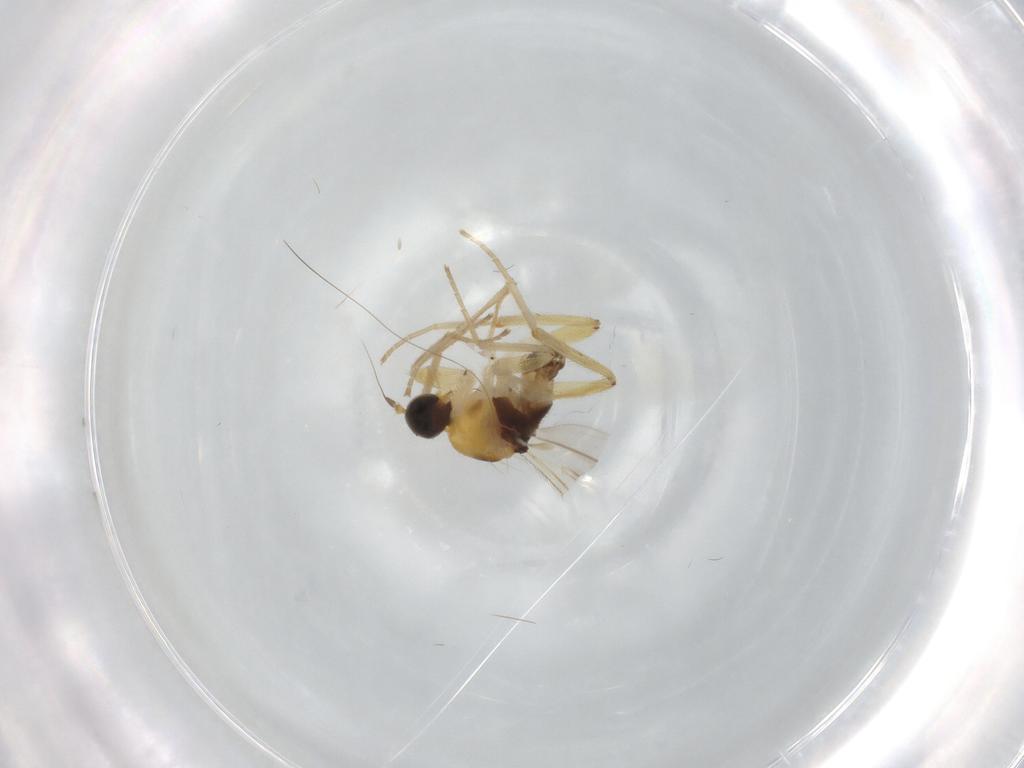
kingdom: Animalia
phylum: Arthropoda
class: Insecta
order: Diptera
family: Hybotidae
